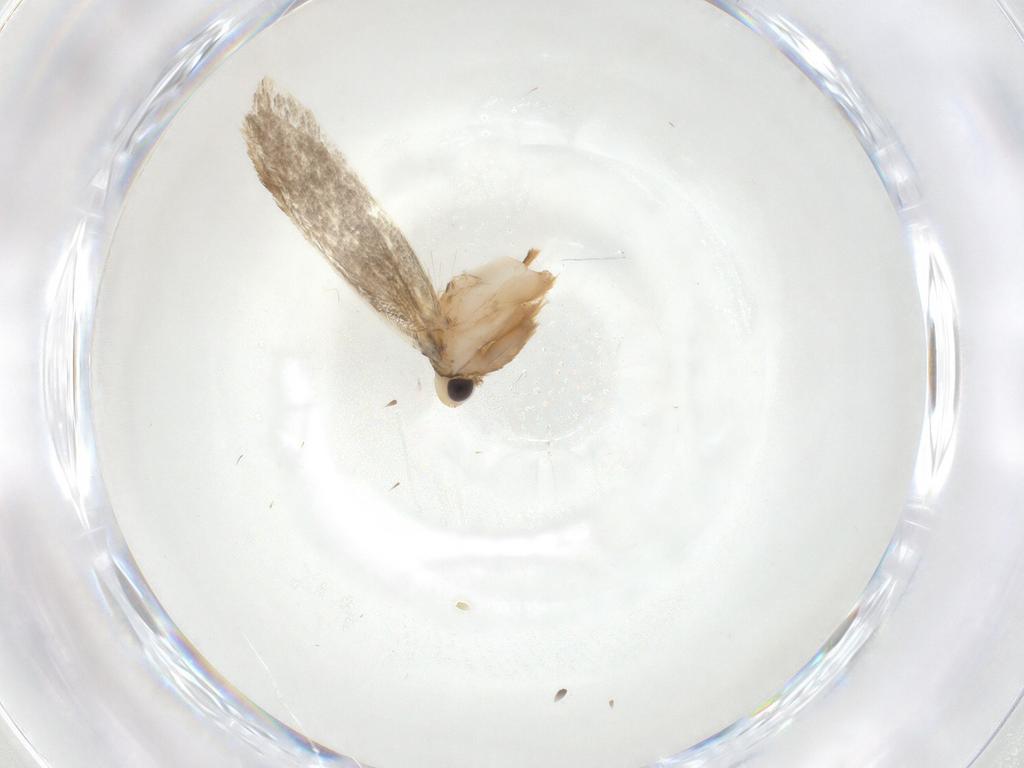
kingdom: Animalia
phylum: Arthropoda
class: Insecta
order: Lepidoptera
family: Tineidae
